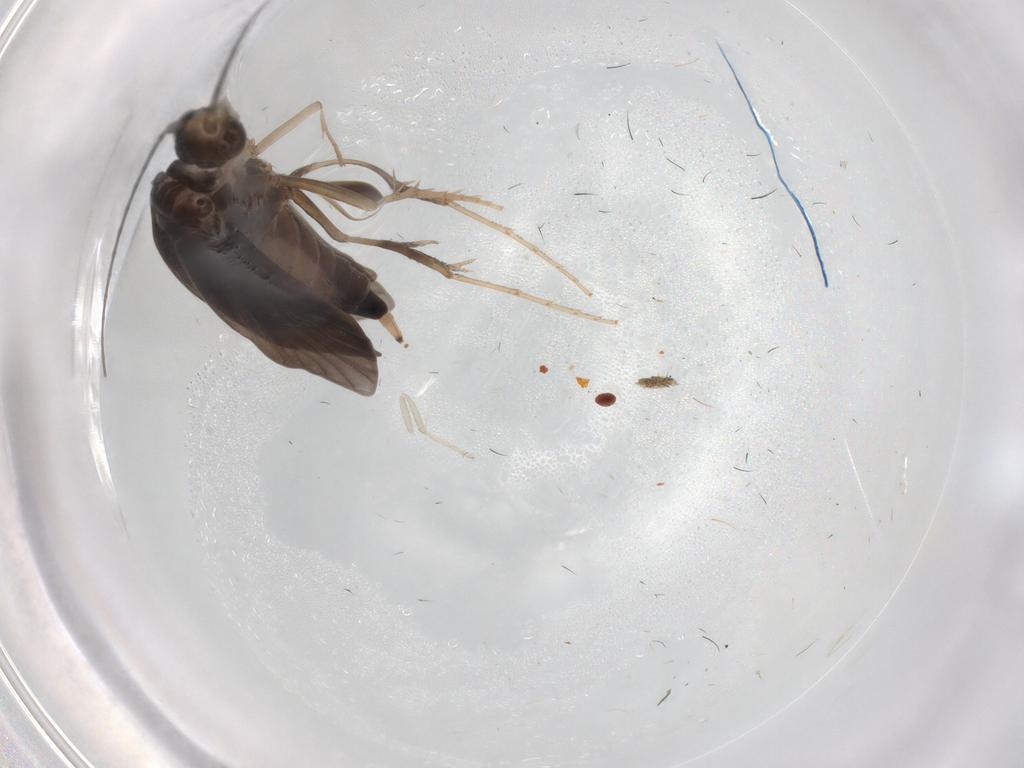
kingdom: Animalia
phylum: Arthropoda
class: Insecta
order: Trichoptera
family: Xiphocentronidae
